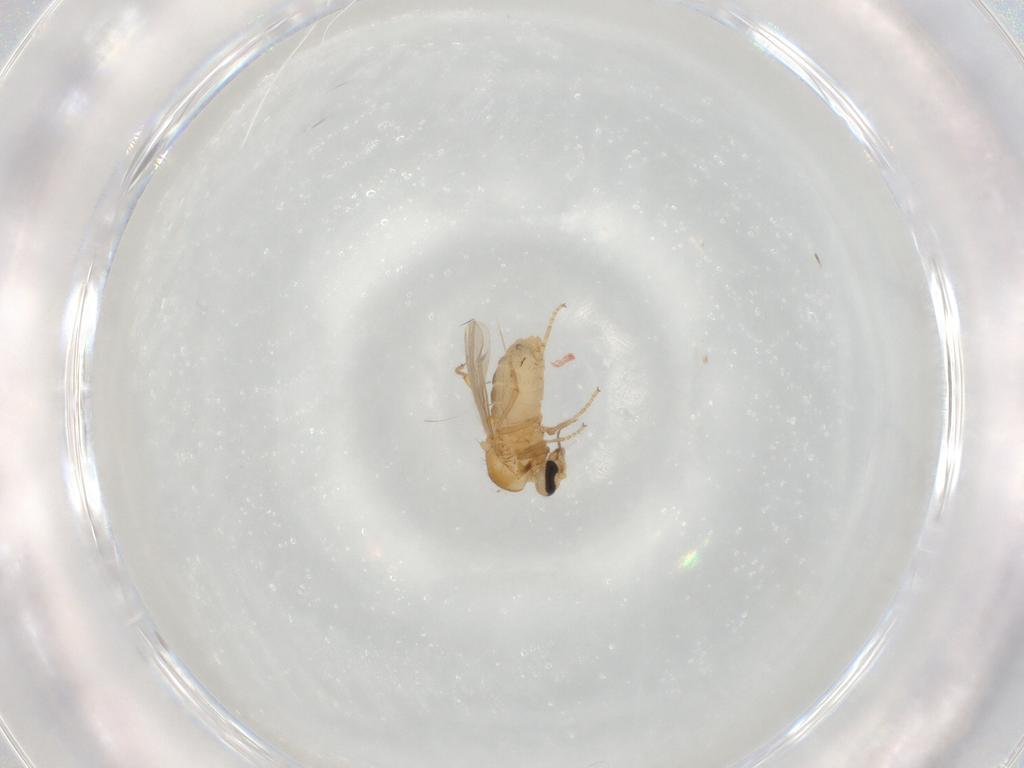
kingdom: Animalia
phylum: Arthropoda
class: Insecta
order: Diptera
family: Ceratopogonidae
